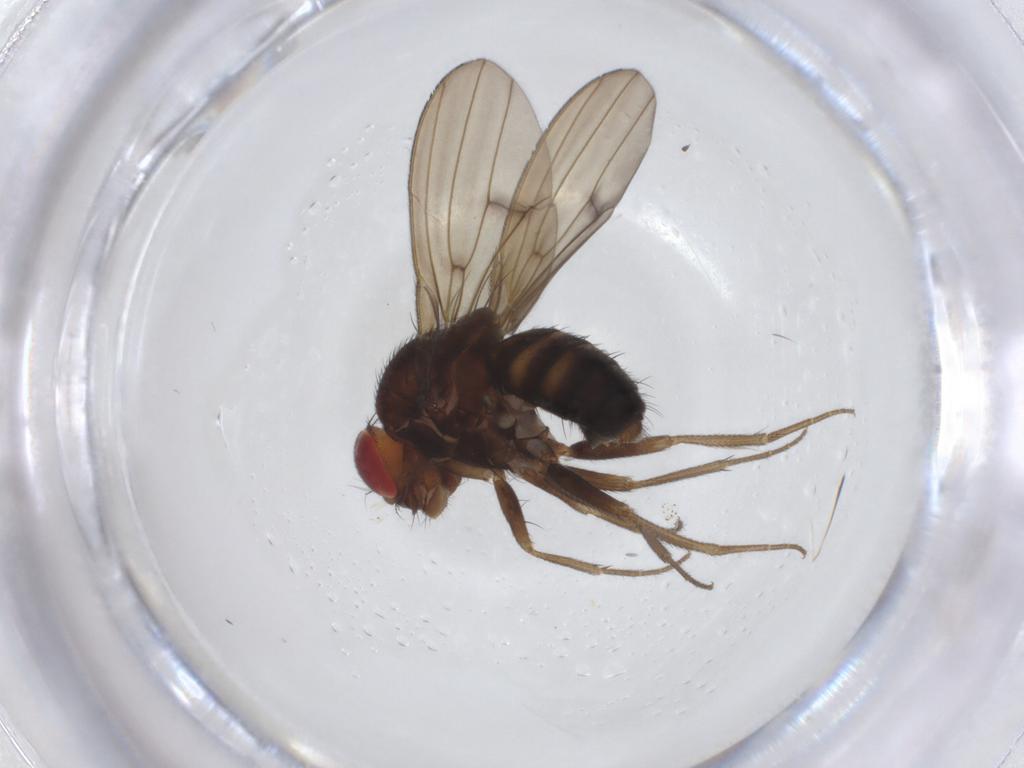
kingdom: Animalia
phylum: Arthropoda
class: Insecta
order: Diptera
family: Drosophilidae
